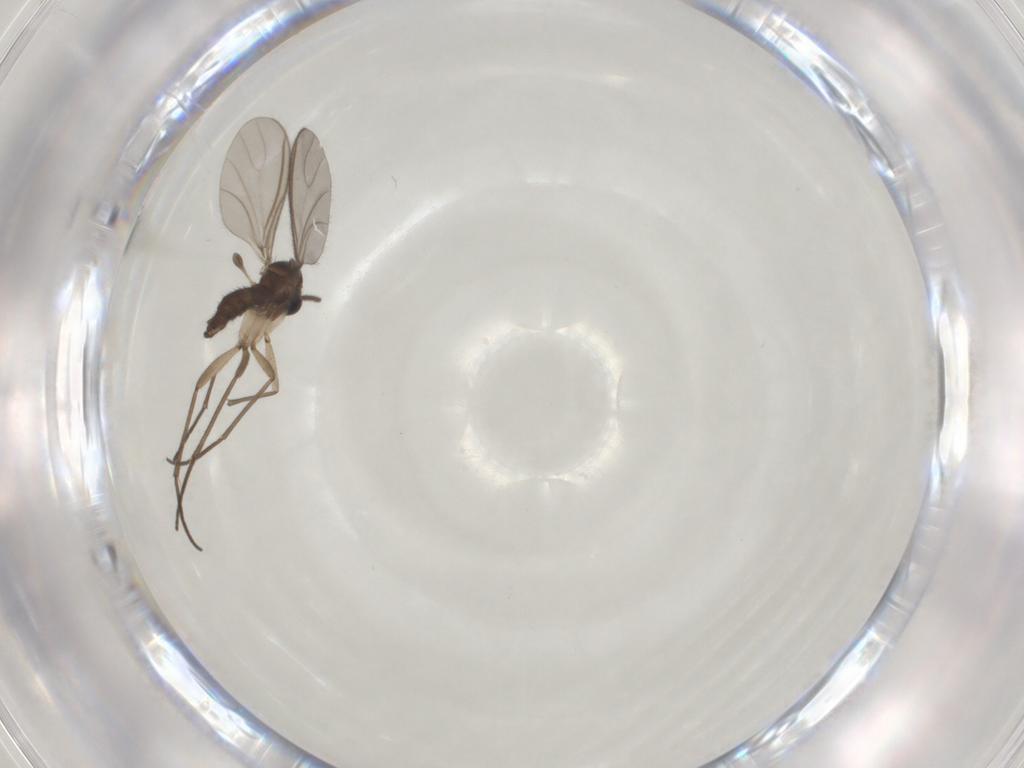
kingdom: Animalia
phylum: Arthropoda
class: Insecta
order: Diptera
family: Sciaridae
